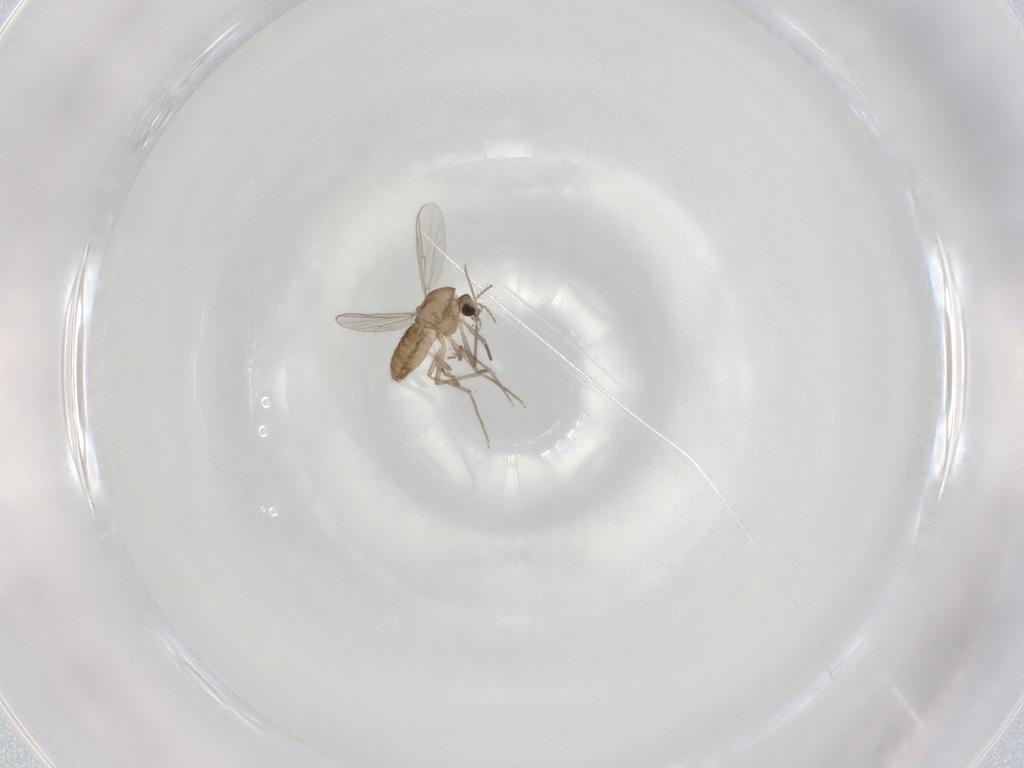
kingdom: Animalia
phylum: Arthropoda
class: Insecta
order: Diptera
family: Chironomidae
